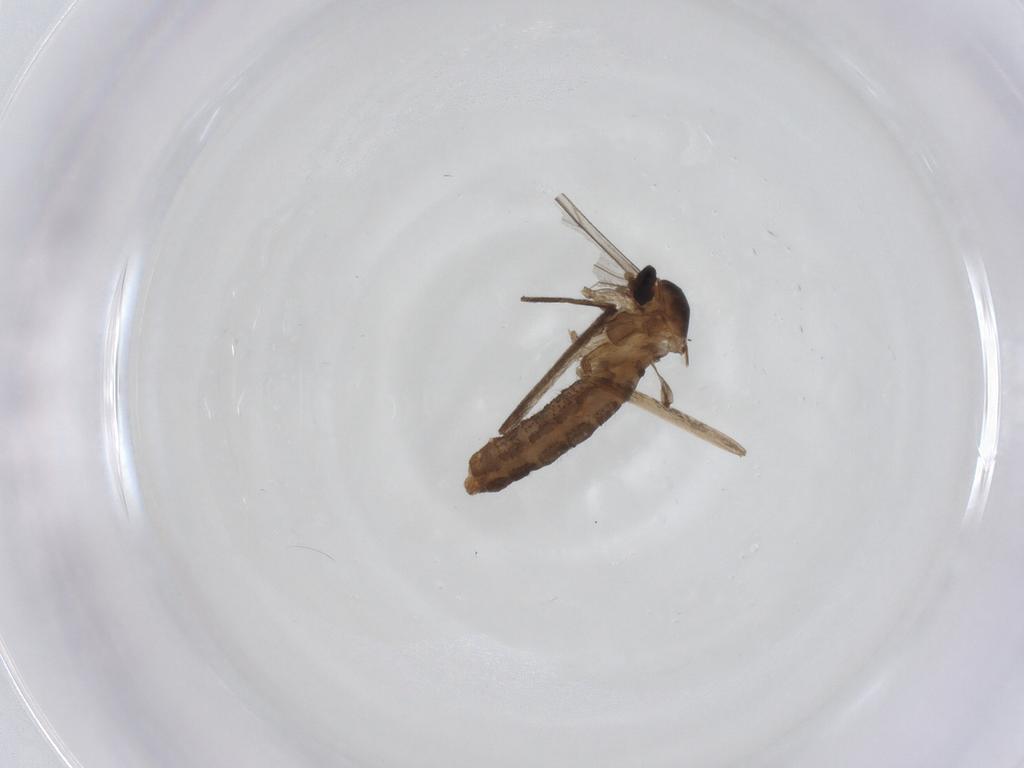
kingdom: Animalia
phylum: Arthropoda
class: Insecta
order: Diptera
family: Cecidomyiidae
